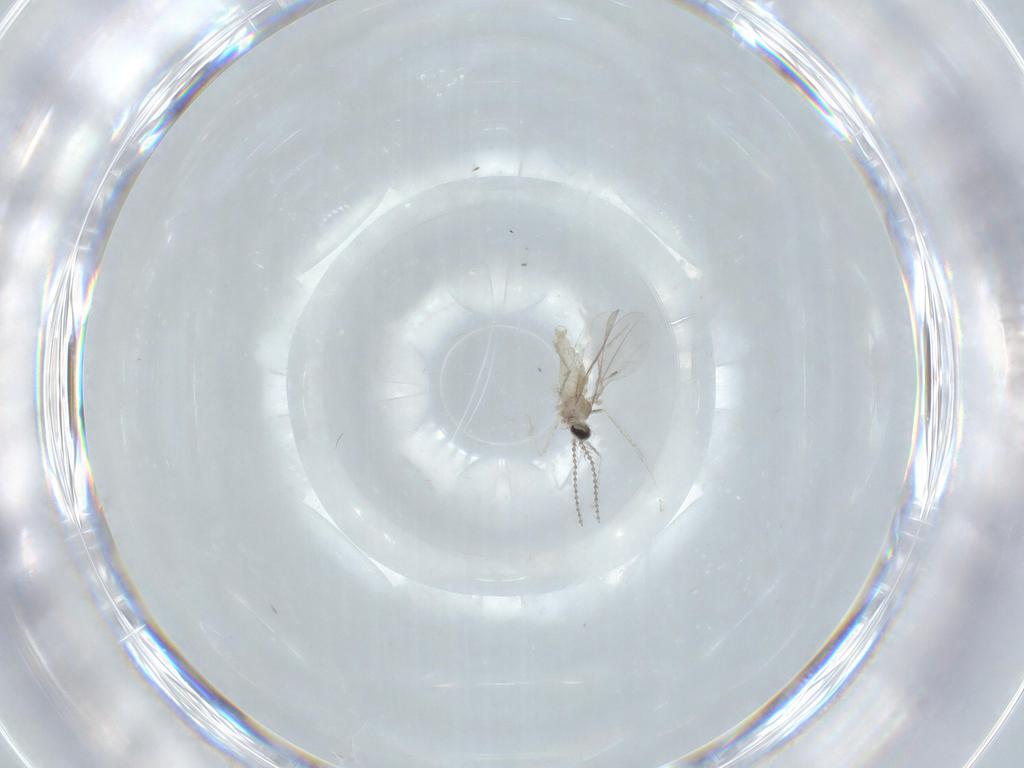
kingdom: Animalia
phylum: Arthropoda
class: Insecta
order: Diptera
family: Cecidomyiidae
